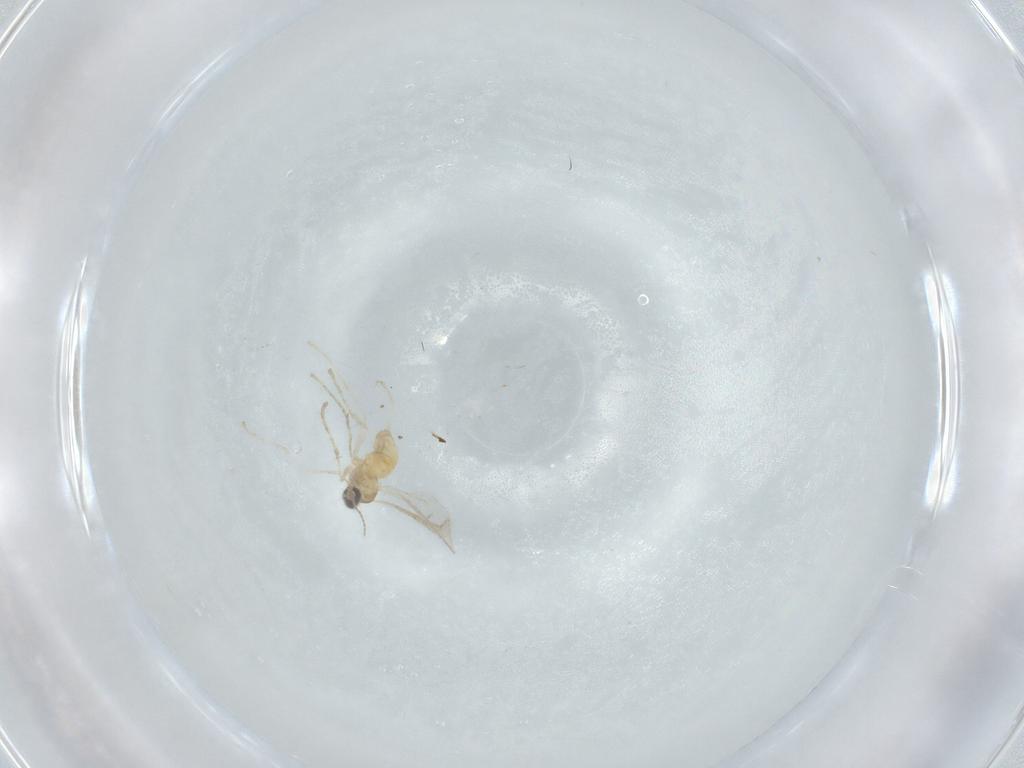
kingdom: Animalia
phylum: Arthropoda
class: Insecta
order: Diptera
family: Cecidomyiidae
